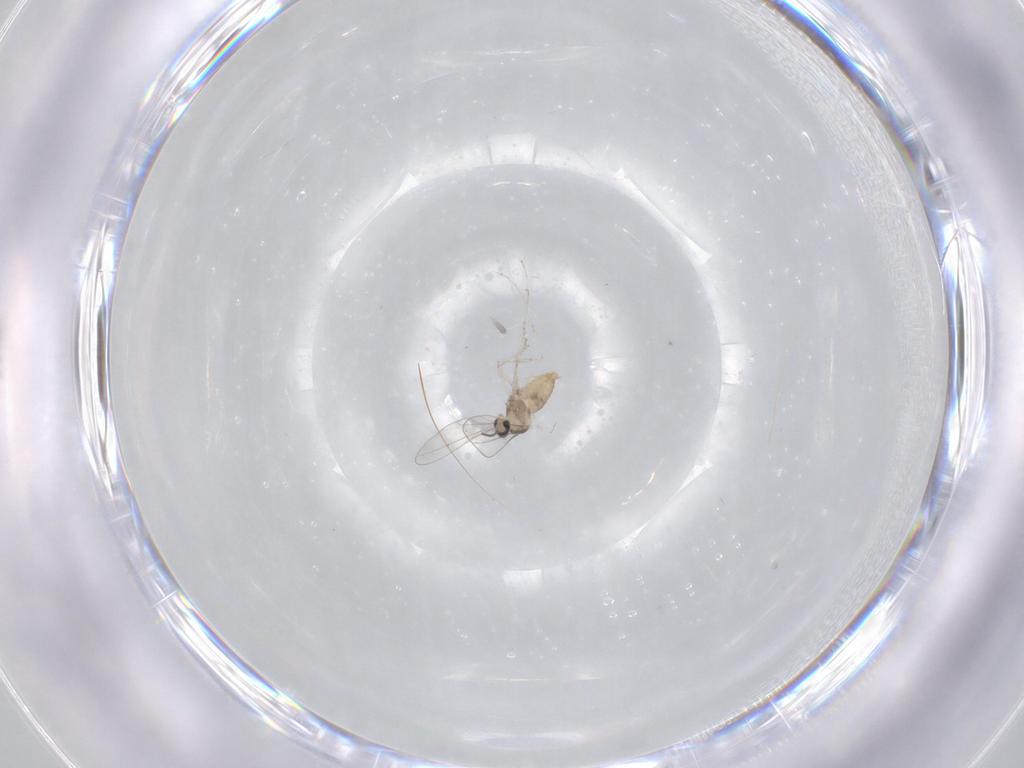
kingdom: Animalia
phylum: Arthropoda
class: Insecta
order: Diptera
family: Cecidomyiidae
